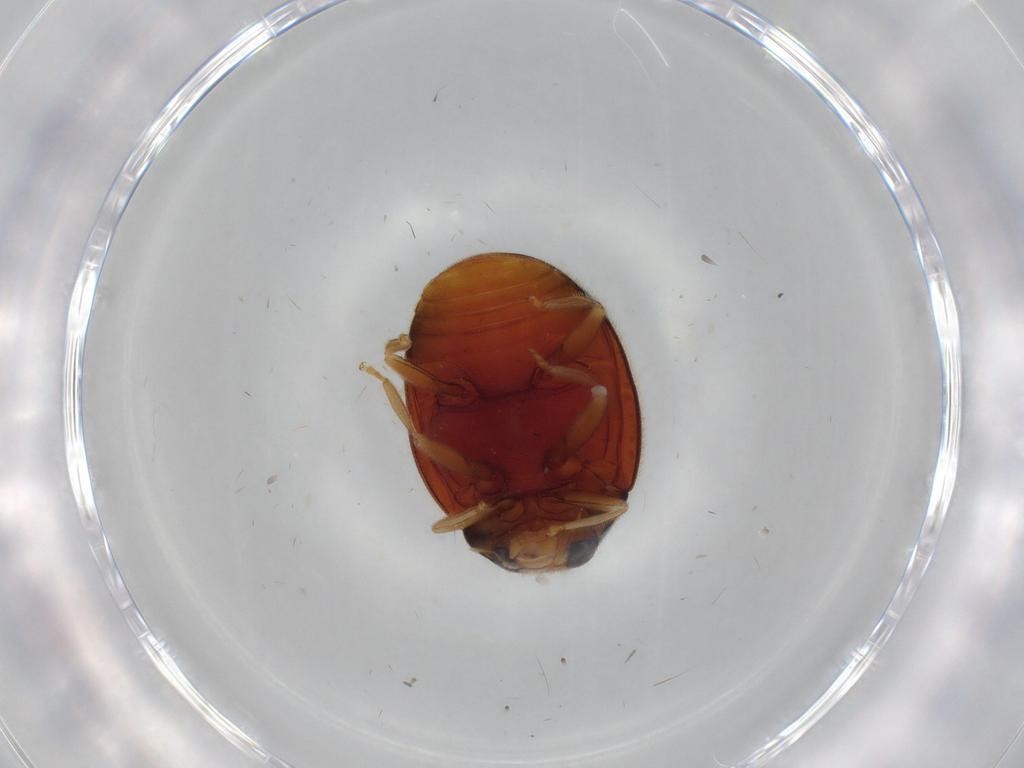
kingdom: Animalia
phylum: Arthropoda
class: Insecta
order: Coleoptera
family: Coccinellidae
